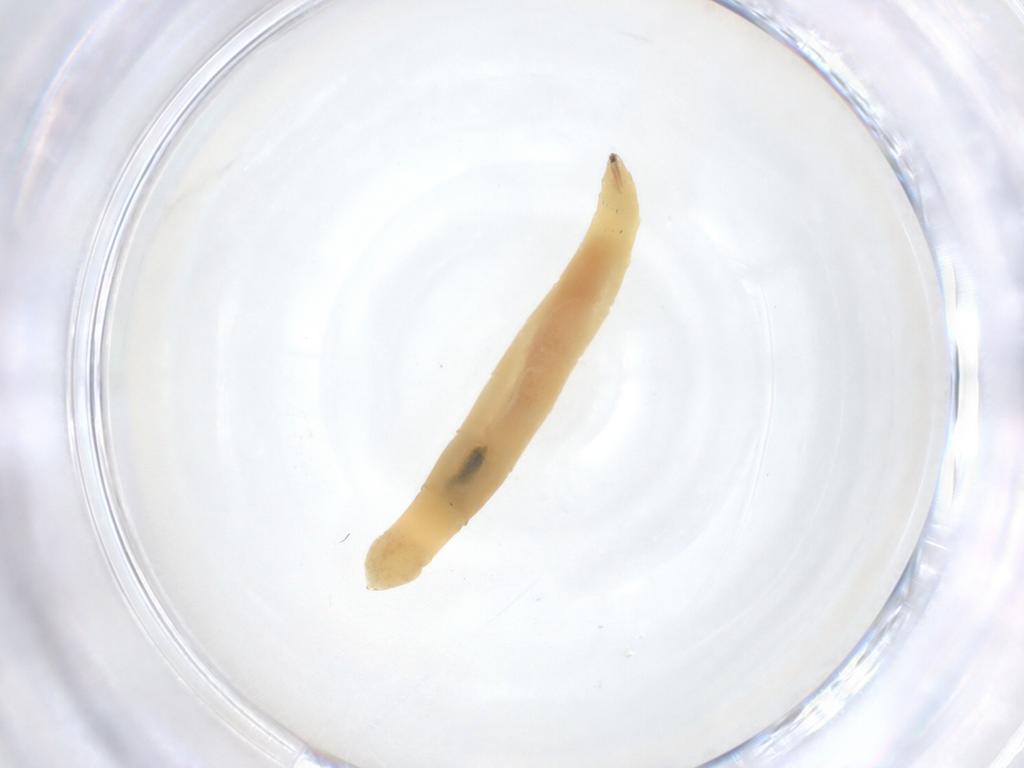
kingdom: Animalia
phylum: Arthropoda
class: Insecta
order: Diptera
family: Hybotidae
